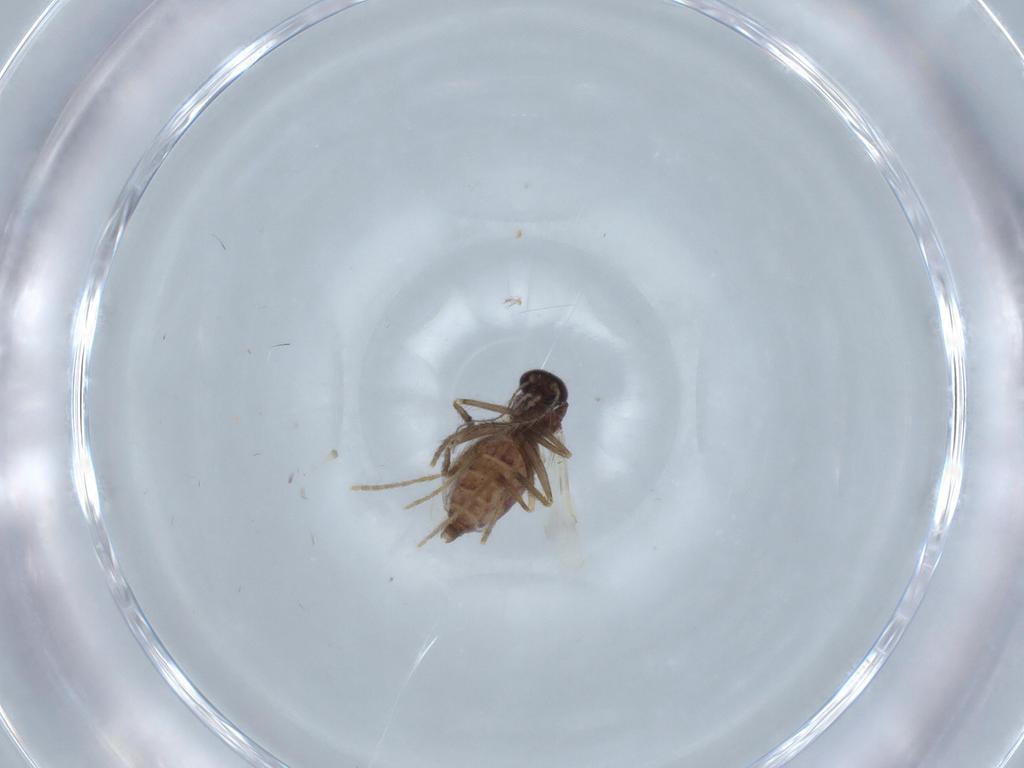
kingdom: Animalia
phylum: Arthropoda
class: Insecta
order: Diptera
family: Corethrellidae
